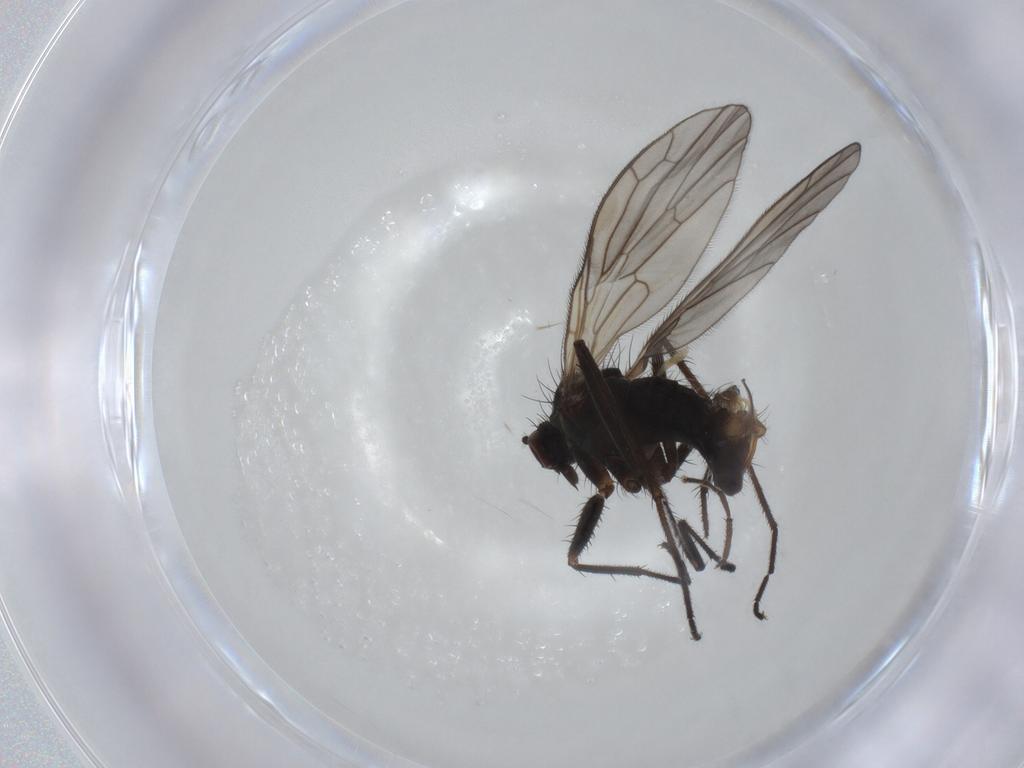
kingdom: Animalia
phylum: Arthropoda
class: Insecta
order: Diptera
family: Empididae
